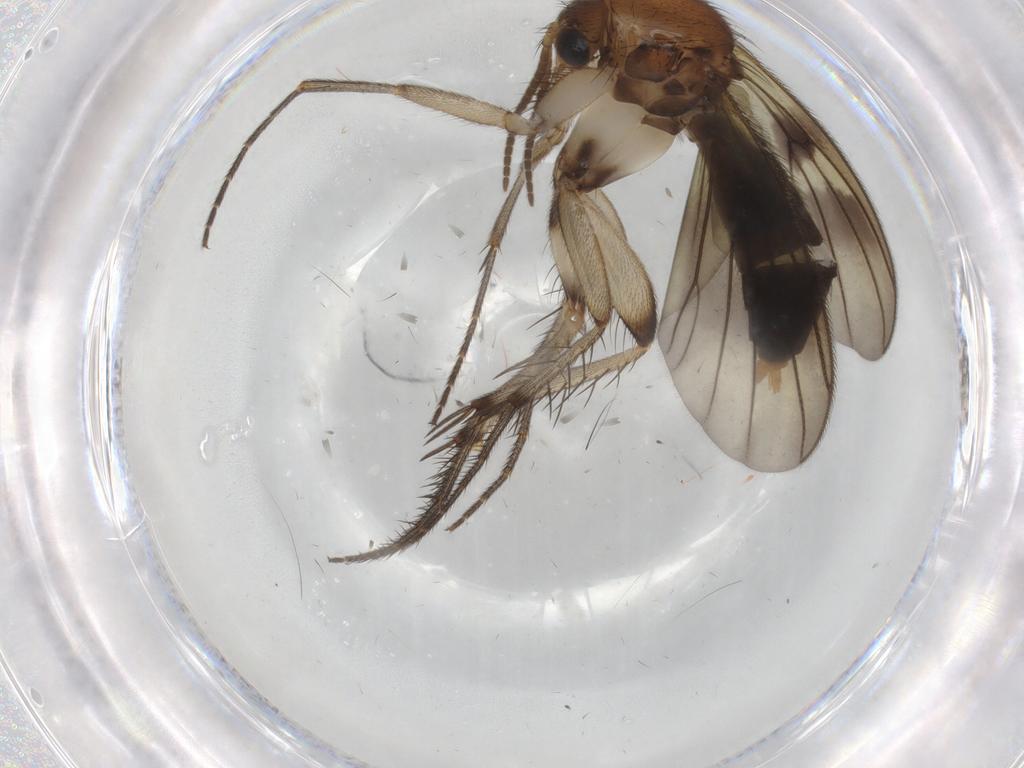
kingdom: Animalia
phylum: Arthropoda
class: Insecta
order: Diptera
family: Mycetophilidae
